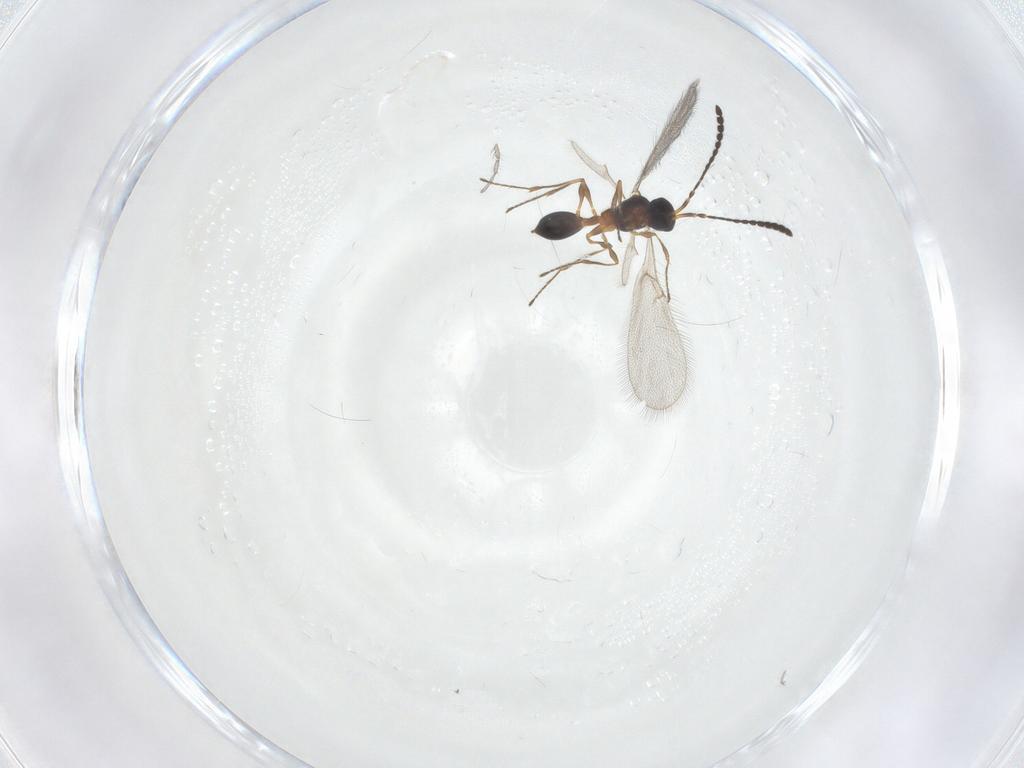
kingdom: Animalia
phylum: Arthropoda
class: Insecta
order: Hymenoptera
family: Diapriidae
